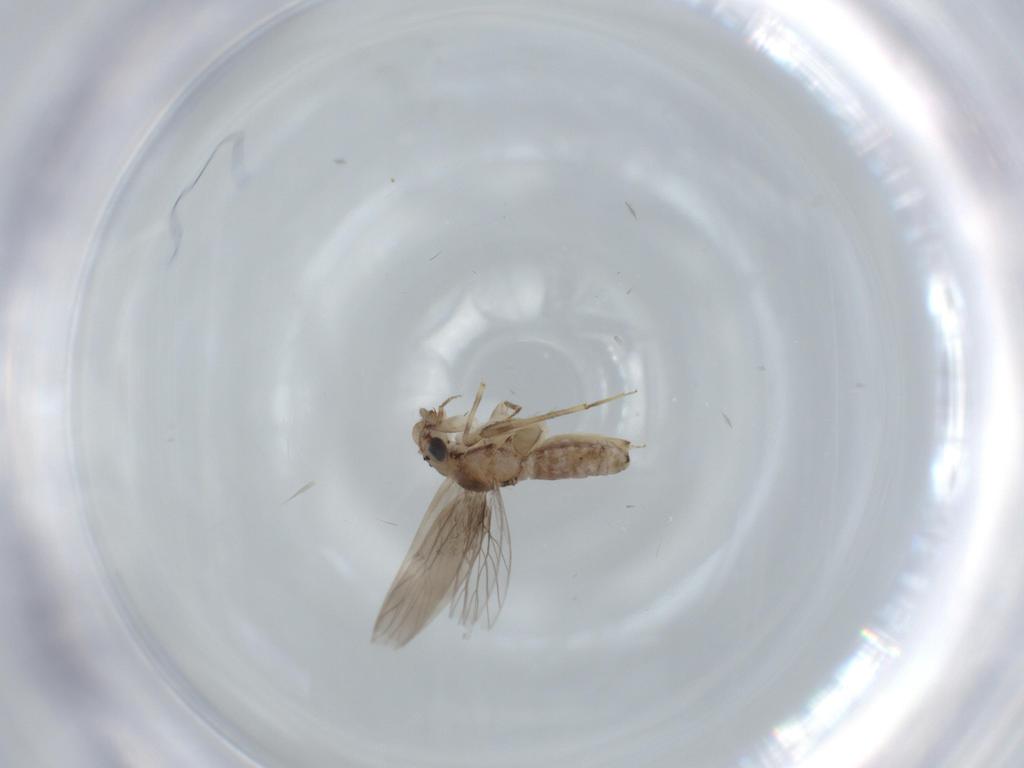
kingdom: Animalia
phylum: Arthropoda
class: Insecta
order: Psocodea
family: Lepidopsocidae
